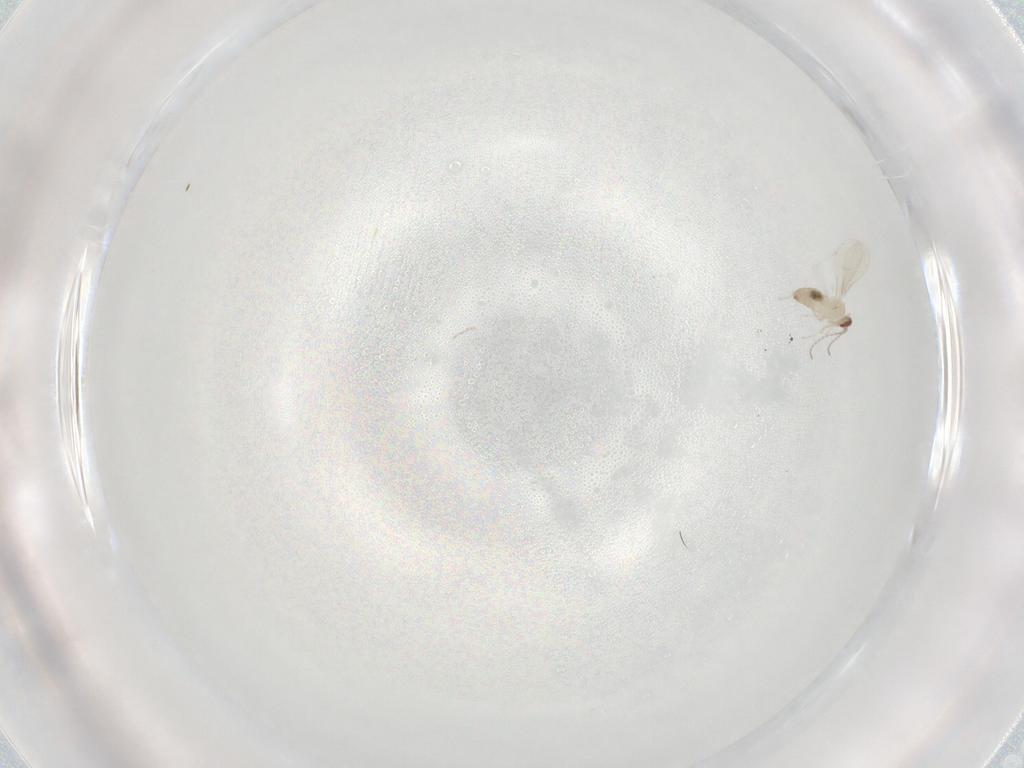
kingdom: Animalia
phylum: Arthropoda
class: Insecta
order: Diptera
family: Cecidomyiidae
